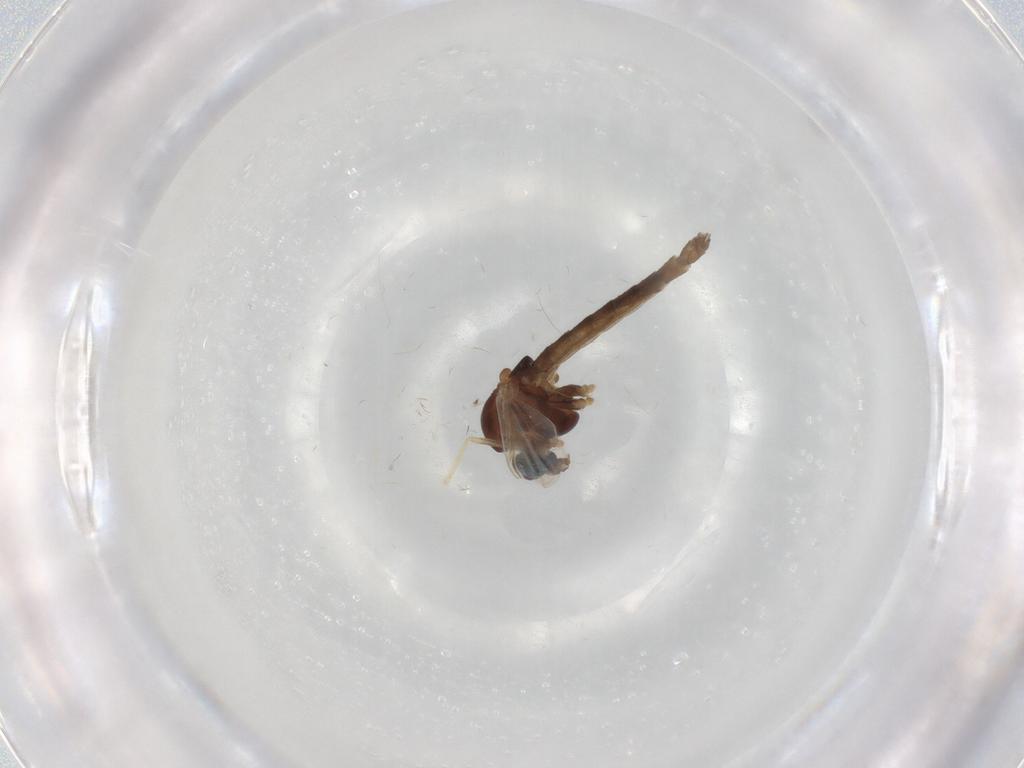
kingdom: Animalia
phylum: Arthropoda
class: Insecta
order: Diptera
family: Chironomidae
